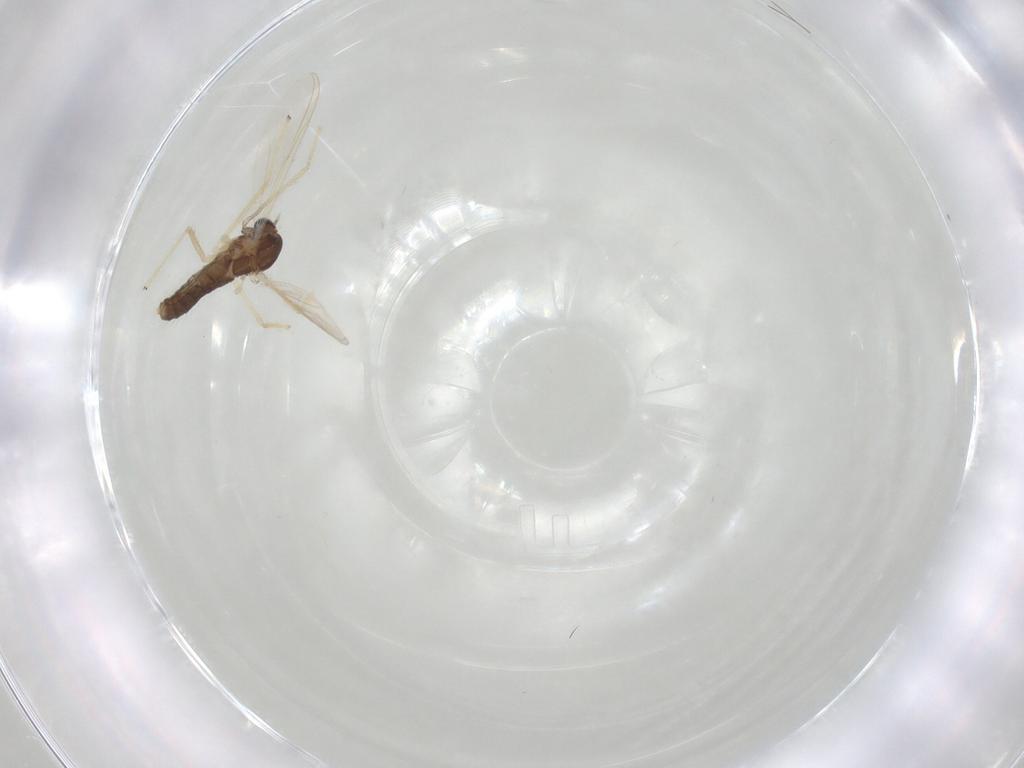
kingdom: Animalia
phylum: Arthropoda
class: Insecta
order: Diptera
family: Chironomidae
